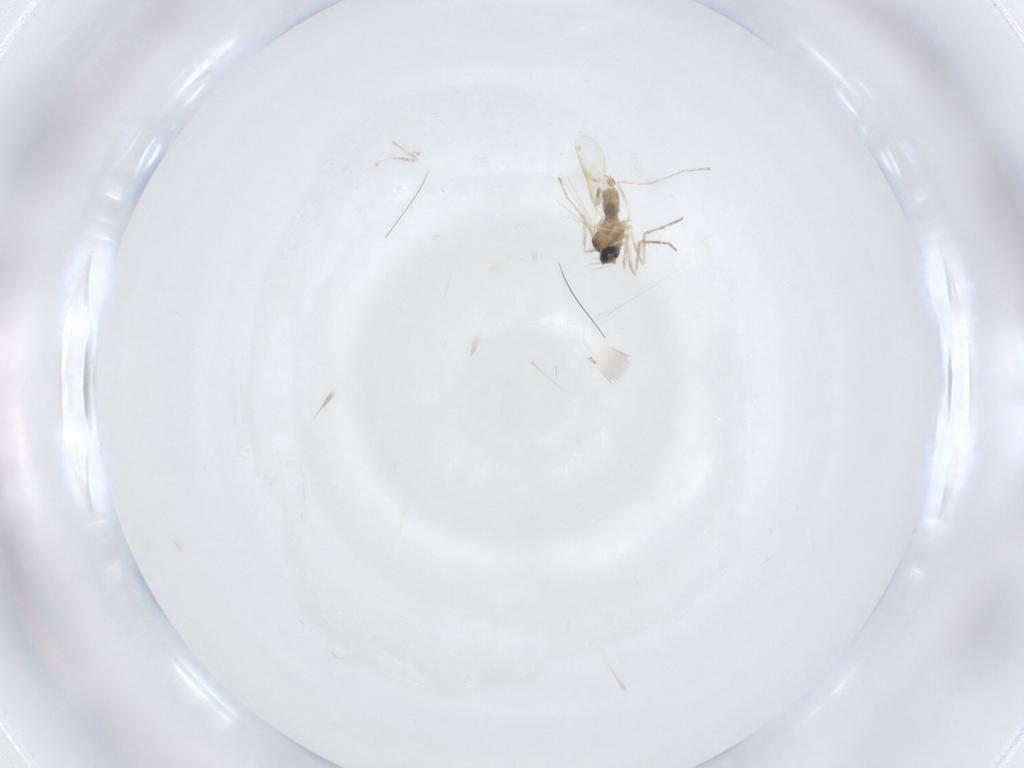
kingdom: Animalia
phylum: Arthropoda
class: Insecta
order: Diptera
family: Cecidomyiidae
